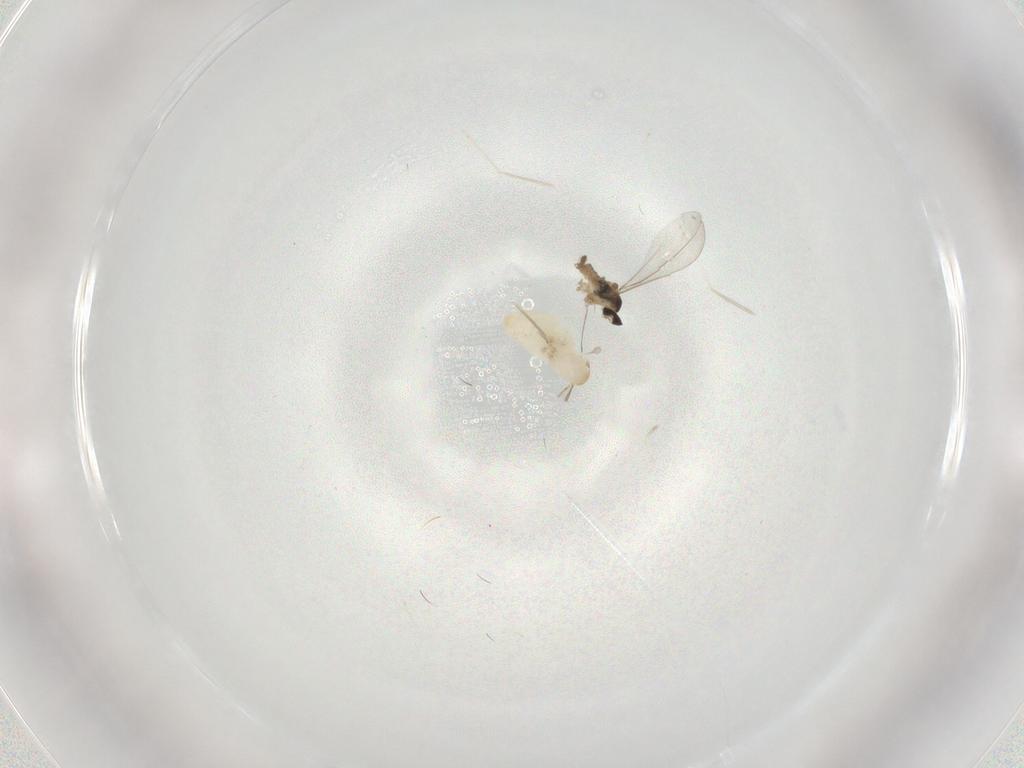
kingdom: Animalia
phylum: Arthropoda
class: Insecta
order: Diptera
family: Cecidomyiidae
